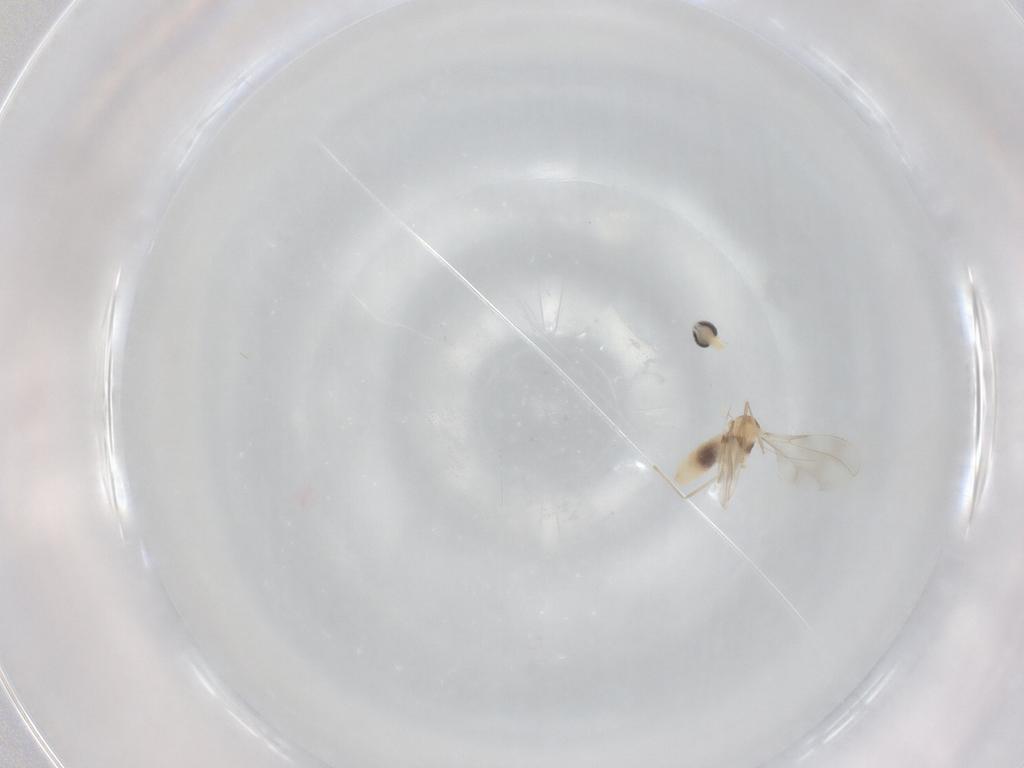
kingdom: Animalia
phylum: Arthropoda
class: Insecta
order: Diptera
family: Cecidomyiidae
